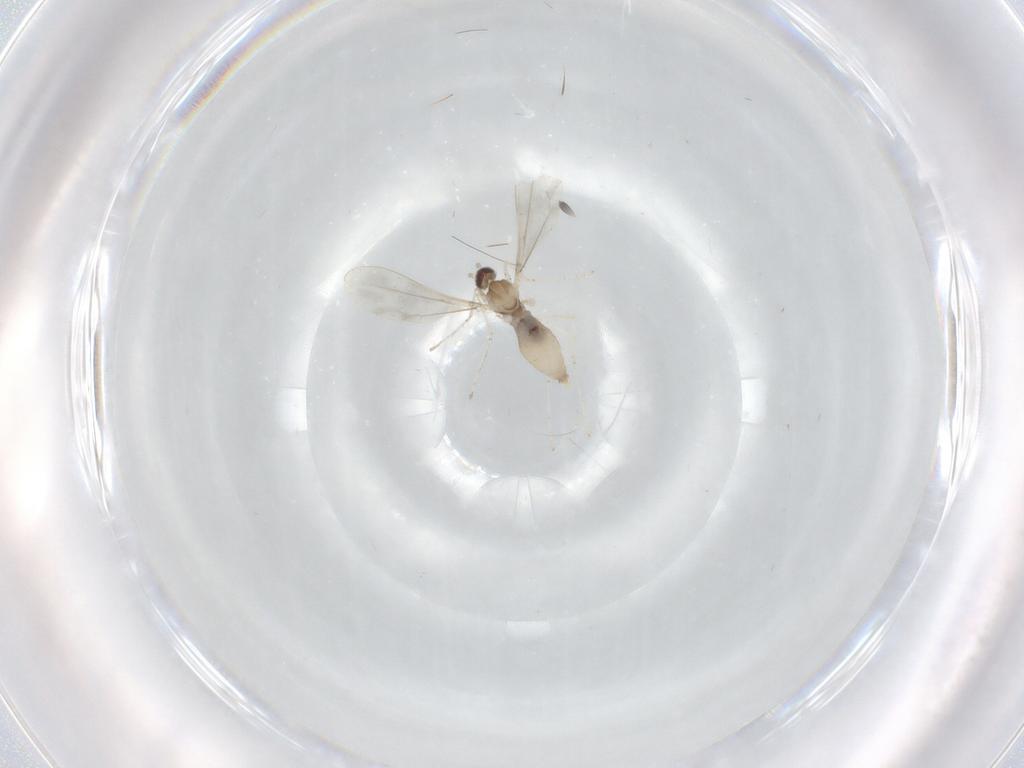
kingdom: Animalia
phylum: Arthropoda
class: Insecta
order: Diptera
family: Cecidomyiidae
